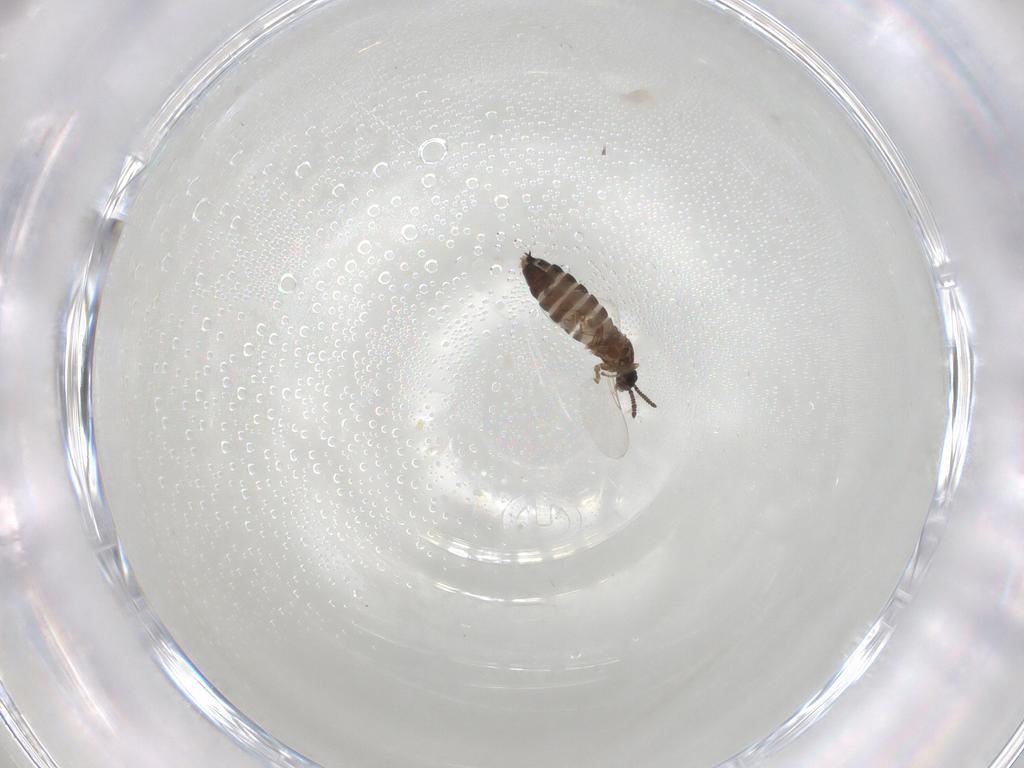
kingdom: Animalia
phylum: Arthropoda
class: Insecta
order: Diptera
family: Scatopsidae
